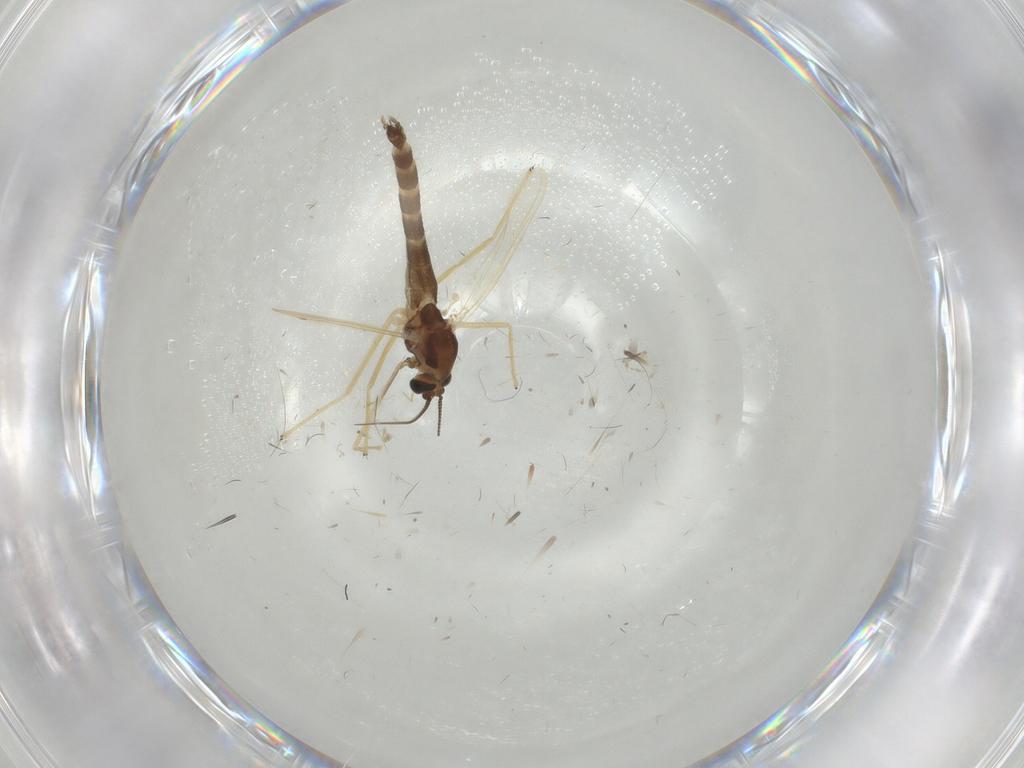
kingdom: Animalia
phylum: Arthropoda
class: Insecta
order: Diptera
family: Chironomidae
